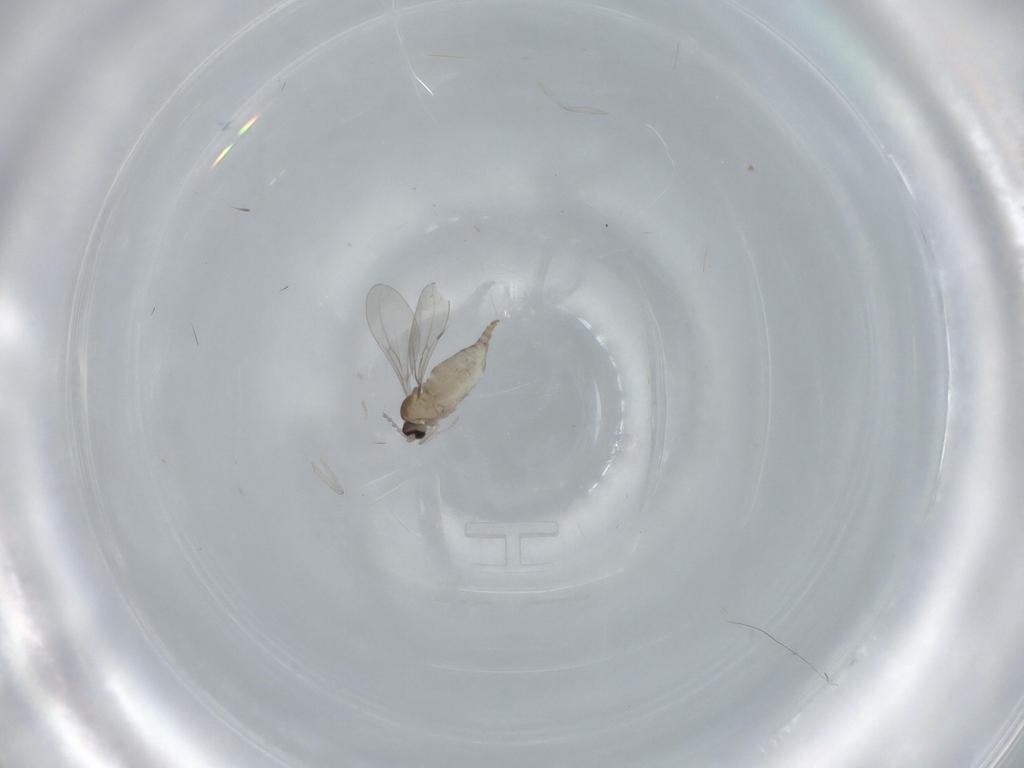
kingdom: Animalia
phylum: Arthropoda
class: Insecta
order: Diptera
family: Cecidomyiidae
